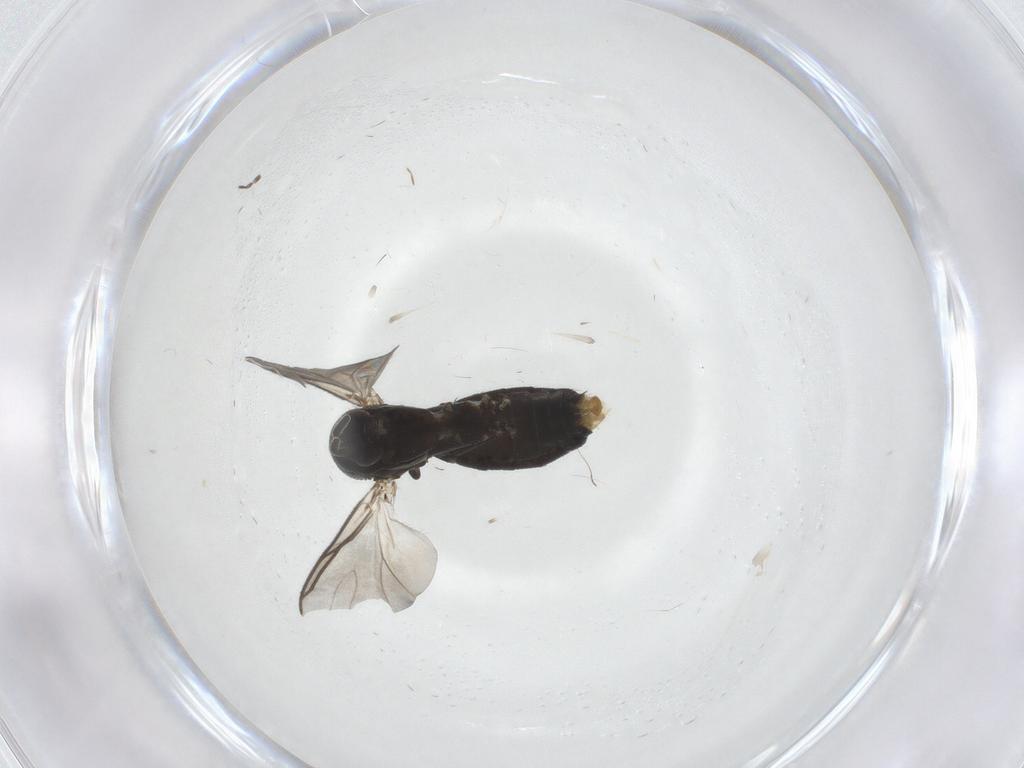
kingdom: Animalia
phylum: Arthropoda
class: Insecta
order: Diptera
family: Mycetophilidae
